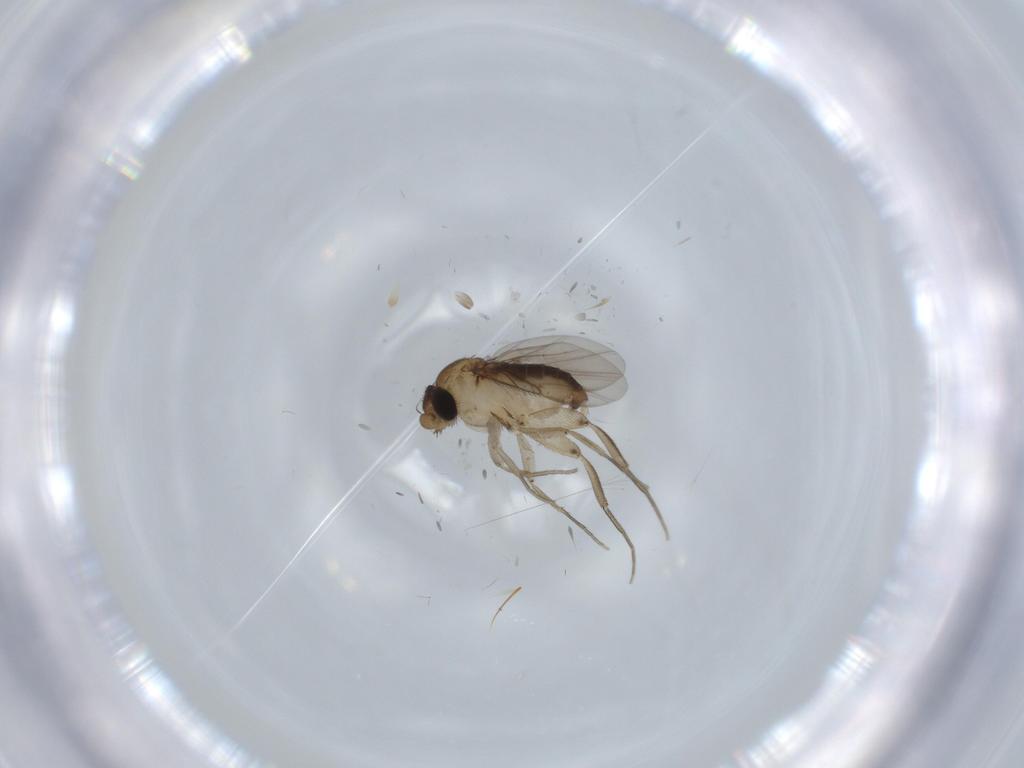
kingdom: Animalia
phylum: Arthropoda
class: Insecta
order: Diptera
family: Phoridae
